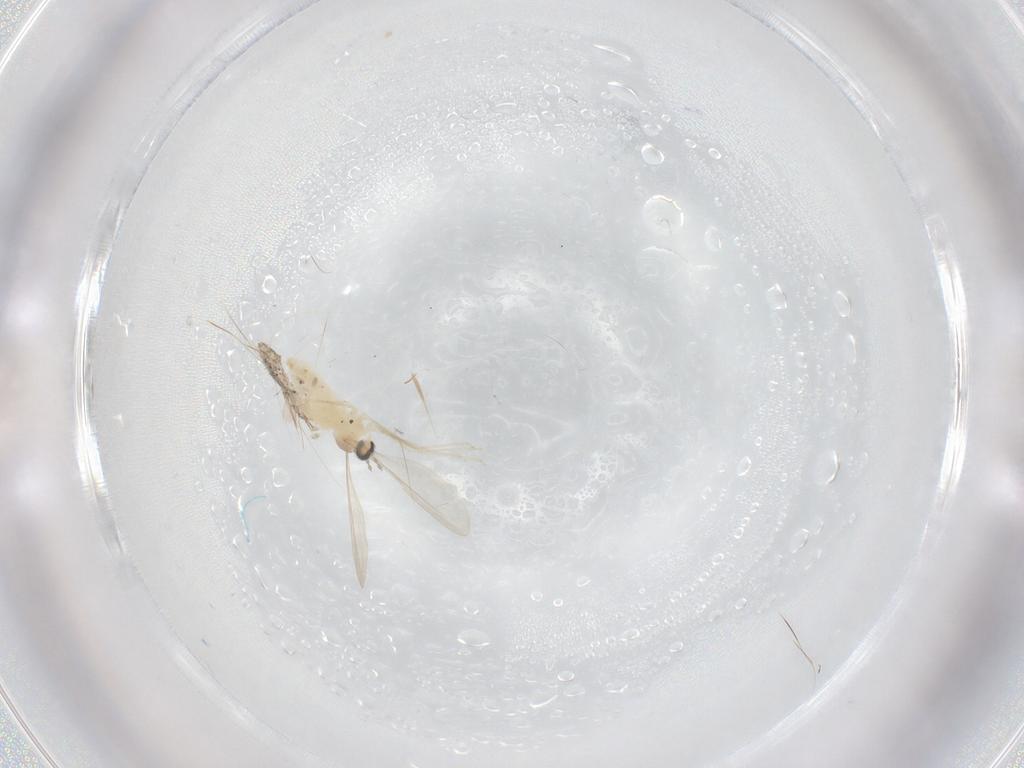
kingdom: Animalia
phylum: Arthropoda
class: Insecta
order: Diptera
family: Cecidomyiidae
